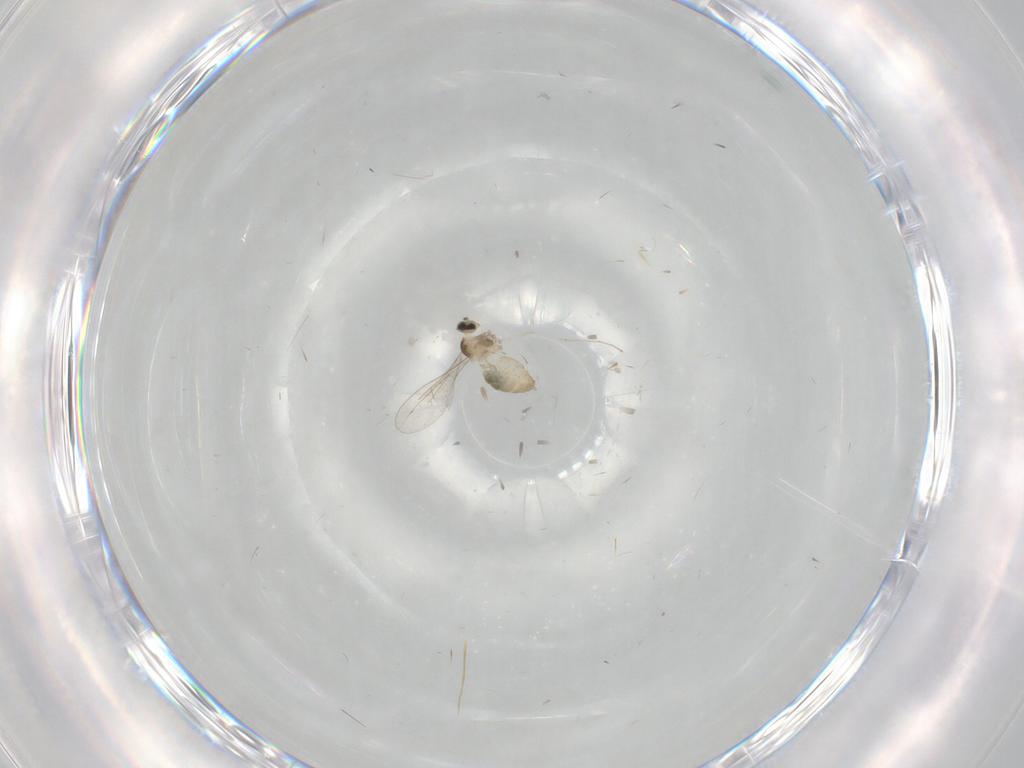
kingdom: Animalia
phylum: Arthropoda
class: Insecta
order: Diptera
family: Cecidomyiidae
